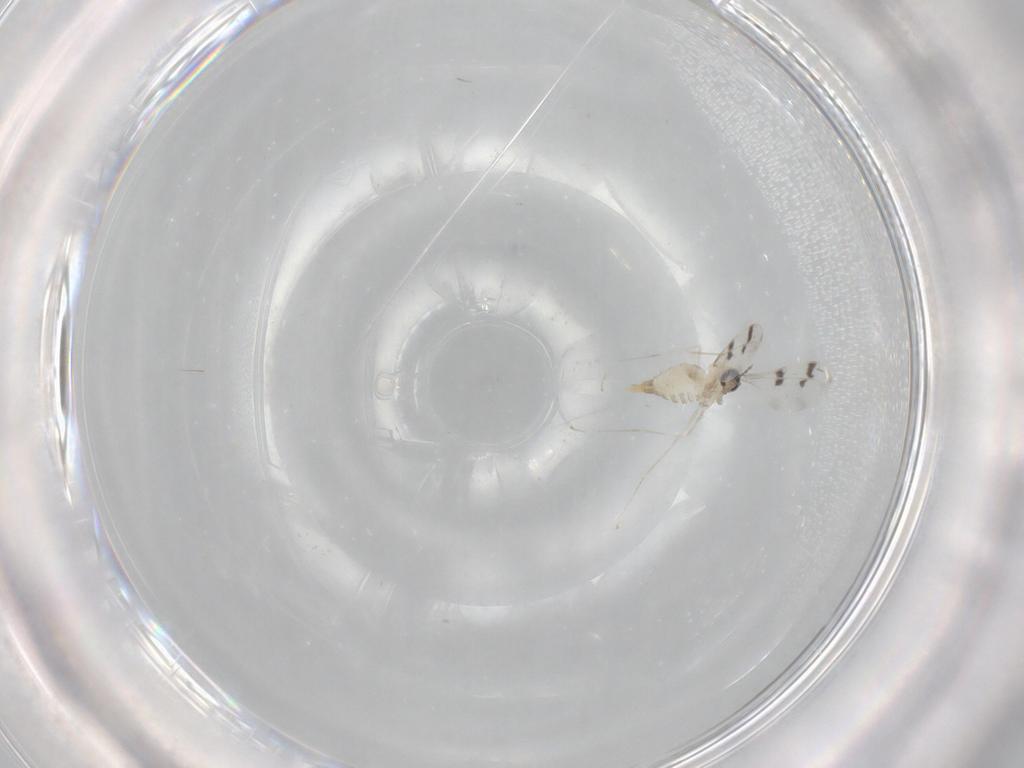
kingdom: Animalia
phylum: Arthropoda
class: Insecta
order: Diptera
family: Cecidomyiidae
